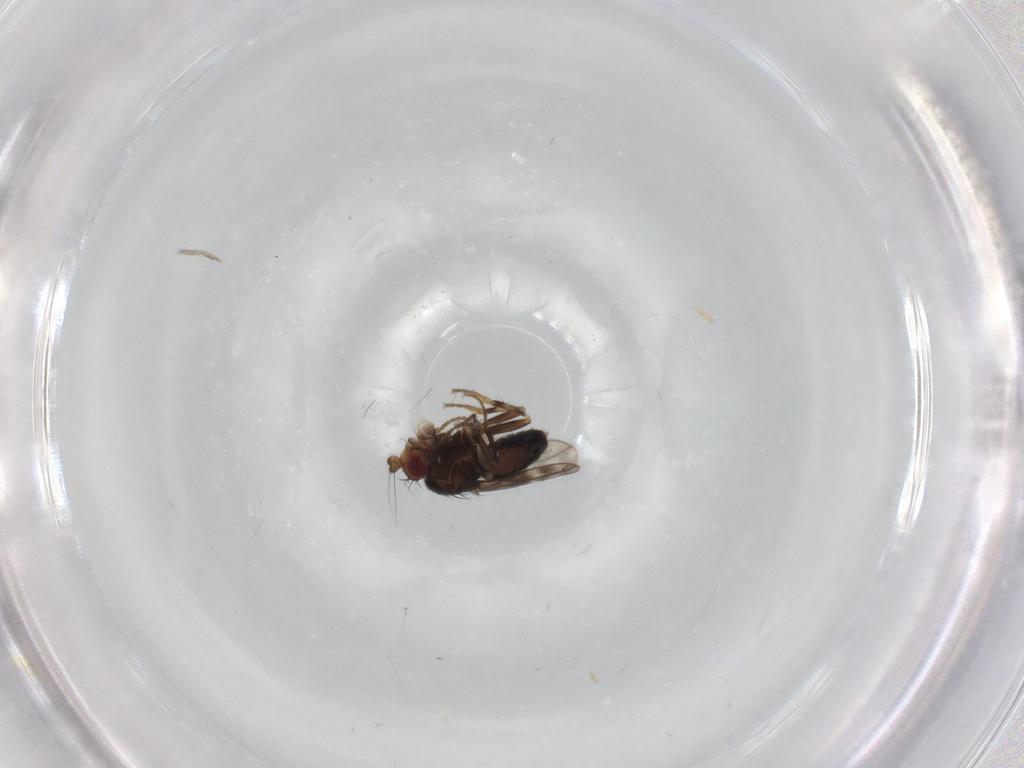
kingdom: Animalia
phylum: Arthropoda
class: Insecta
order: Diptera
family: Sphaeroceridae
